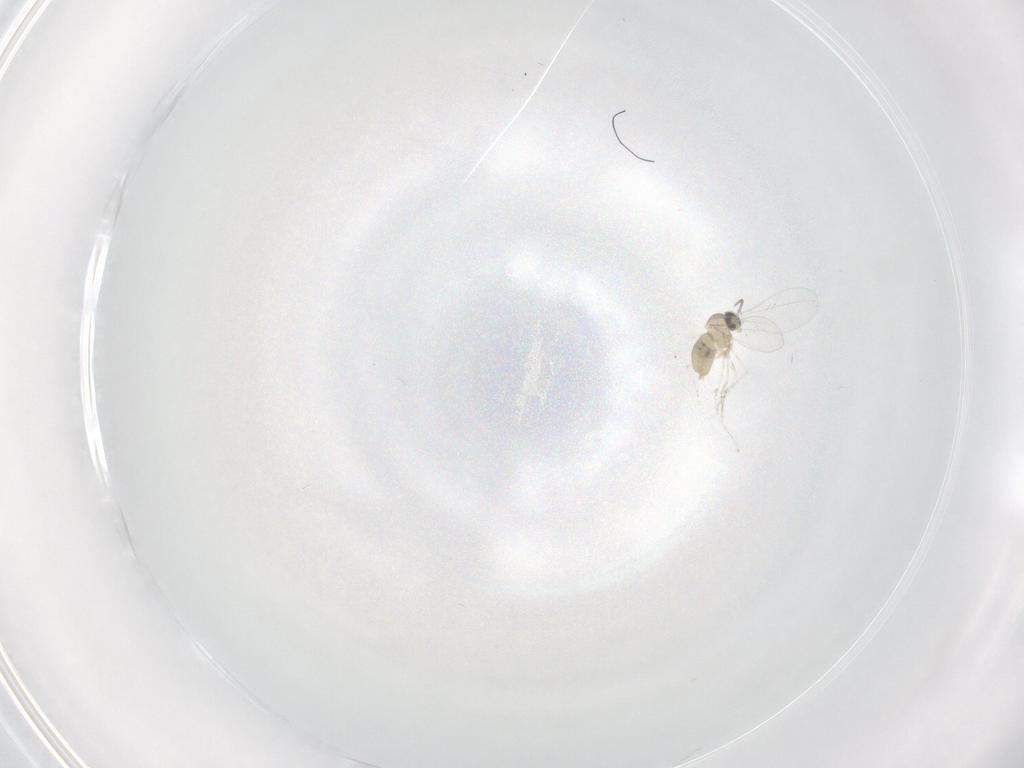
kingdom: Animalia
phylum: Arthropoda
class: Insecta
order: Diptera
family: Cecidomyiidae
